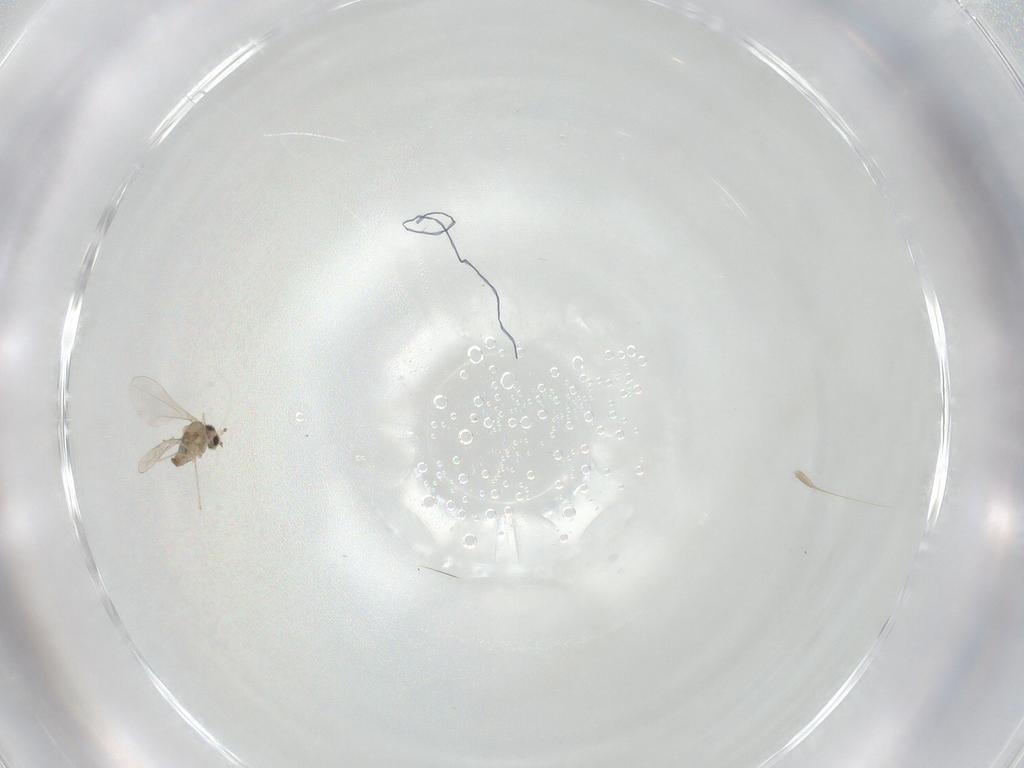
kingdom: Animalia
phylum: Arthropoda
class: Insecta
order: Diptera
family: Cecidomyiidae
